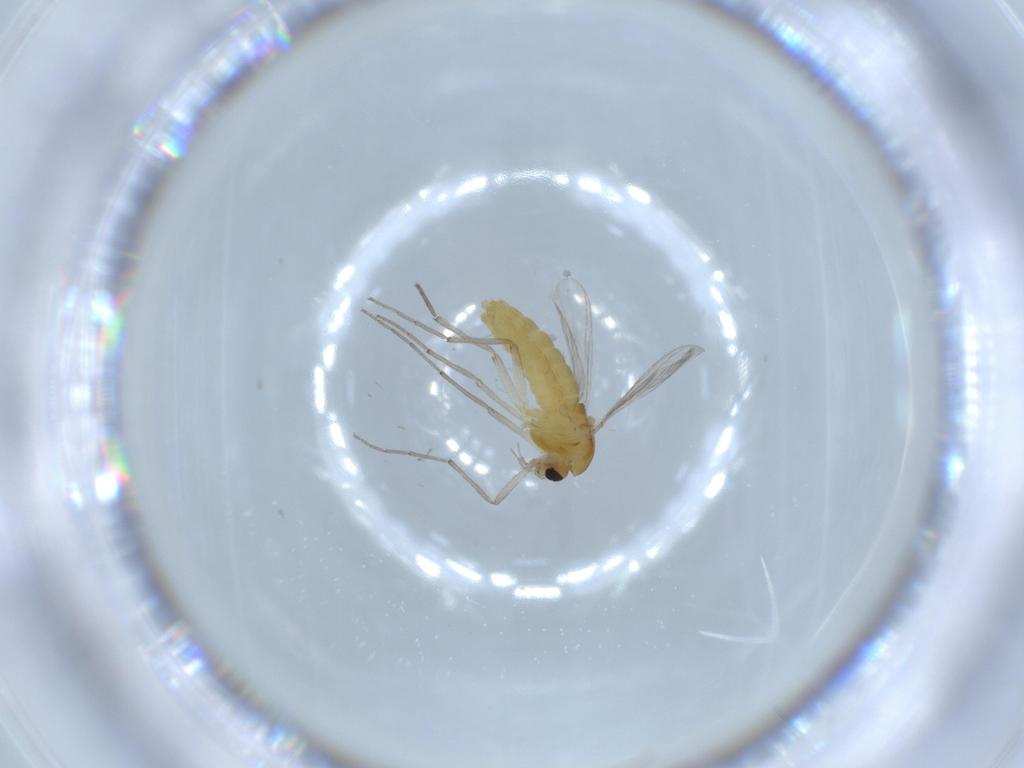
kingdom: Animalia
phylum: Arthropoda
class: Insecta
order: Diptera
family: Chironomidae
